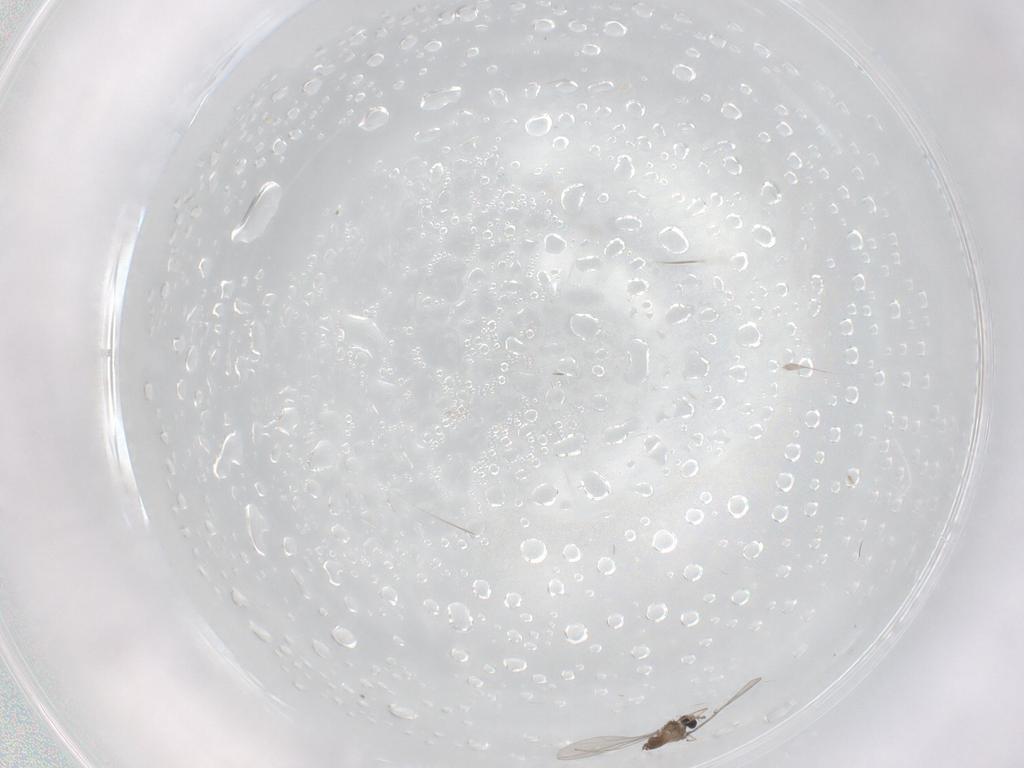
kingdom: Animalia
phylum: Arthropoda
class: Insecta
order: Diptera
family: Cecidomyiidae
